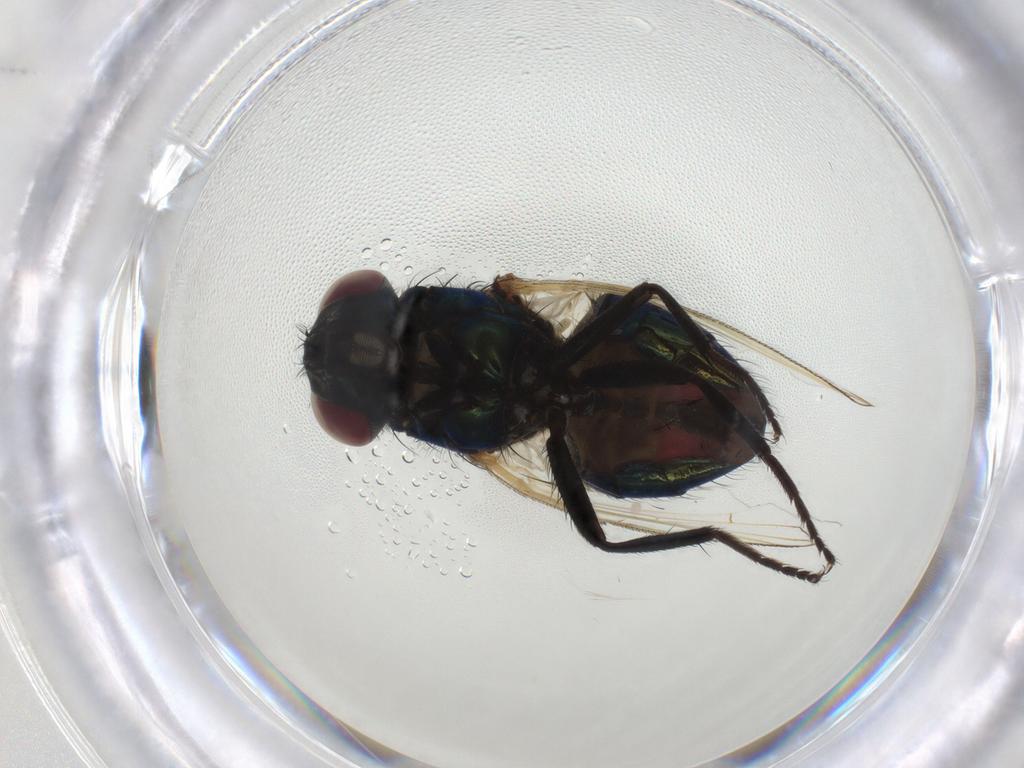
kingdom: Animalia
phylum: Arthropoda
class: Insecta
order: Diptera
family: Muscidae
